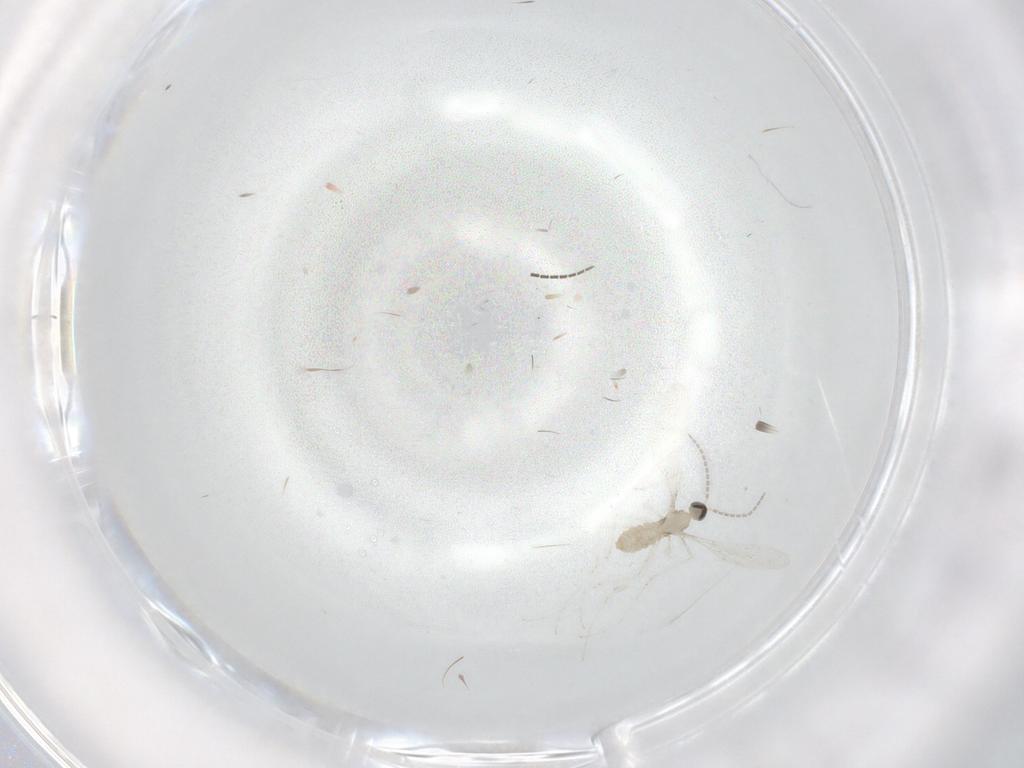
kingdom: Animalia
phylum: Arthropoda
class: Insecta
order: Diptera
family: Cecidomyiidae
